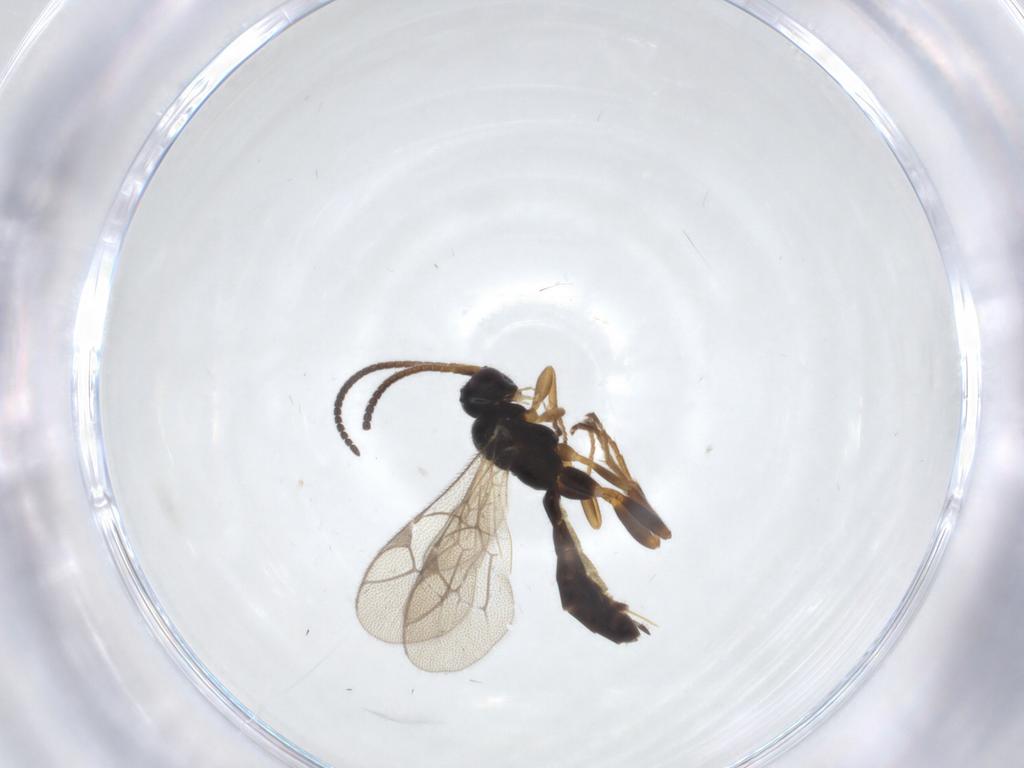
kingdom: Animalia
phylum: Arthropoda
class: Insecta
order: Hymenoptera
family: Ichneumonidae
